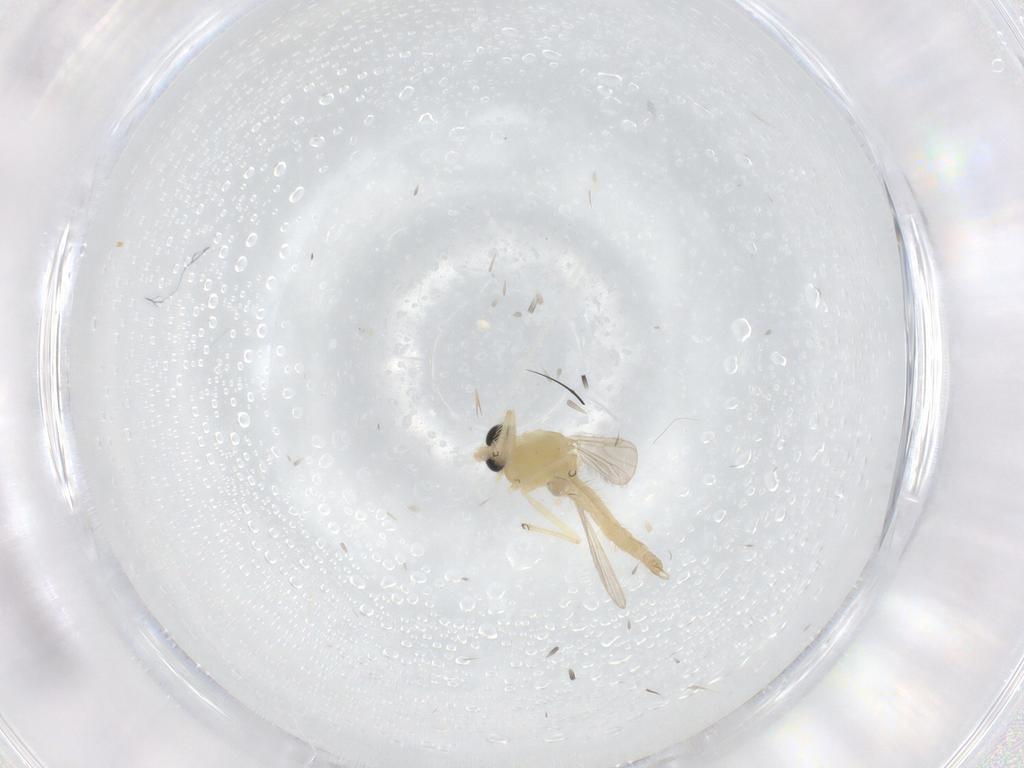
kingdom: Animalia
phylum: Arthropoda
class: Insecta
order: Diptera
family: Chironomidae
